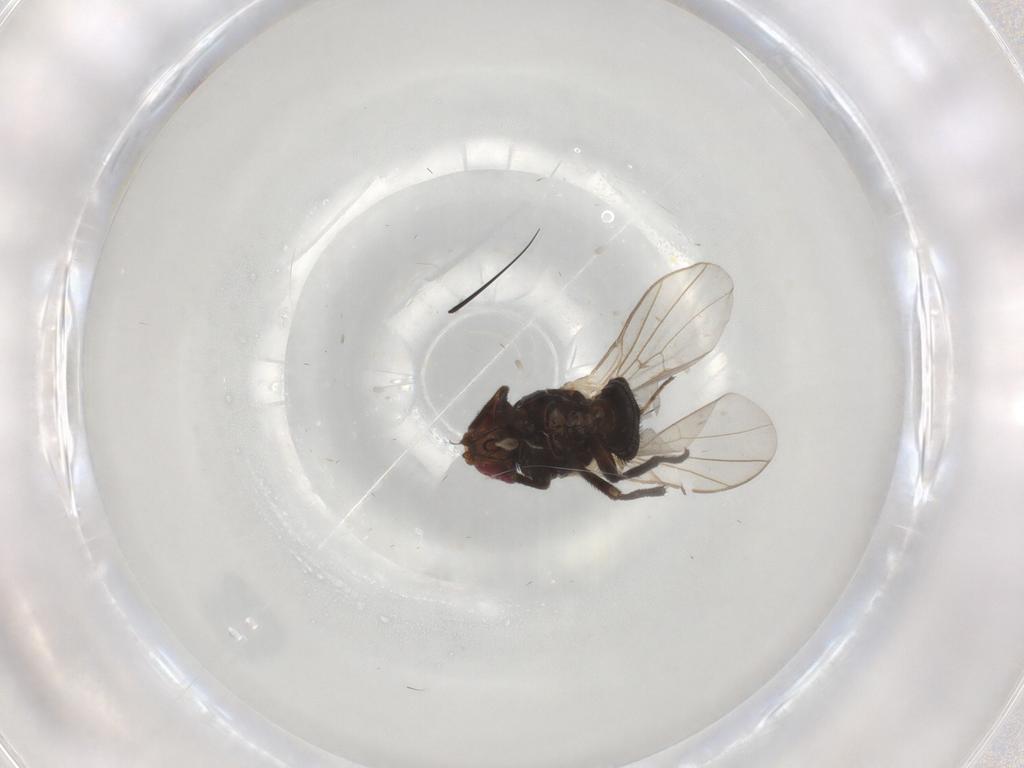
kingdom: Animalia
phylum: Arthropoda
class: Insecta
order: Diptera
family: Agromyzidae
